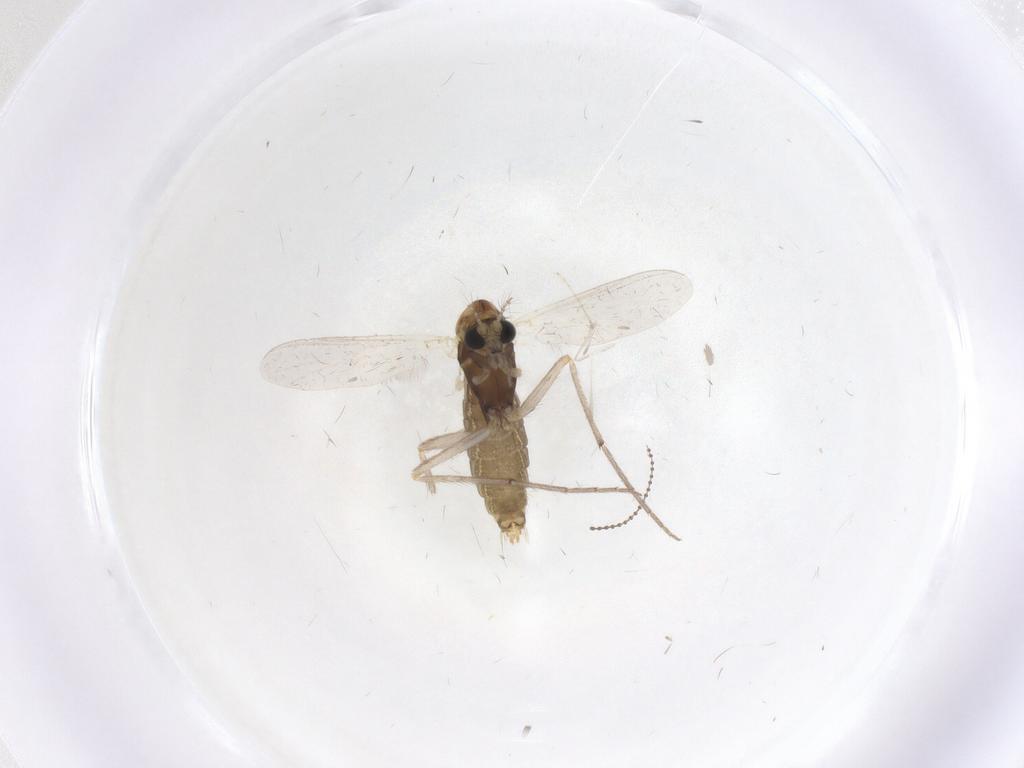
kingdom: Animalia
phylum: Arthropoda
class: Insecta
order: Diptera
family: Chironomidae
